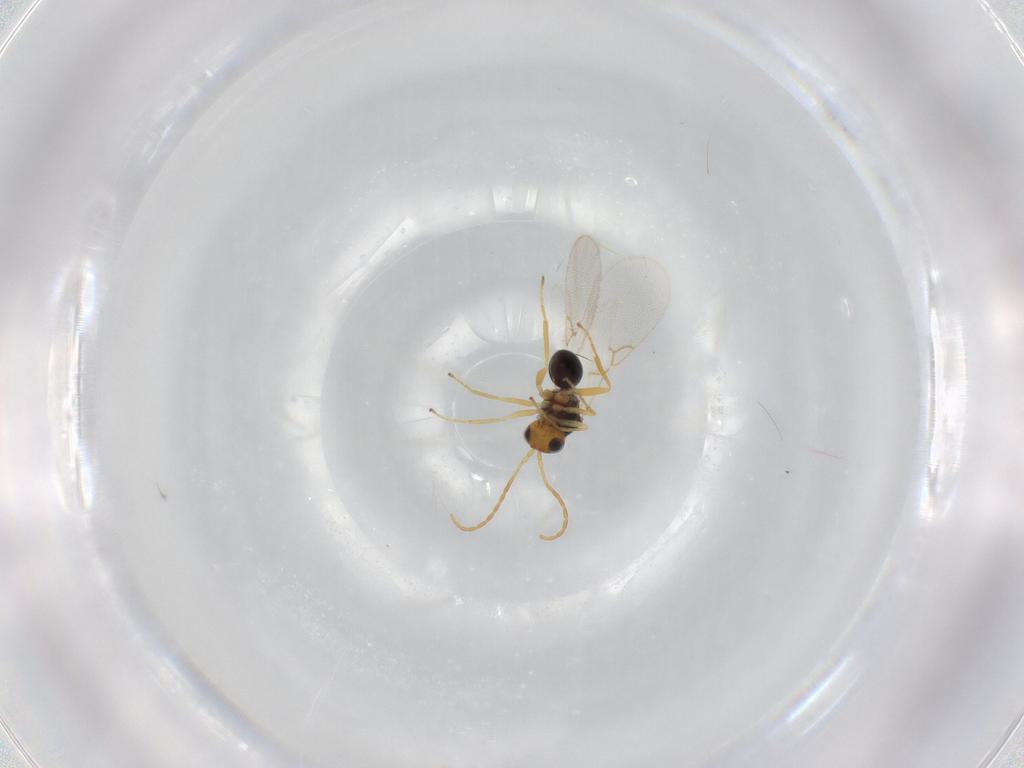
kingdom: Animalia
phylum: Arthropoda
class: Insecta
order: Hymenoptera
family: Figitidae
